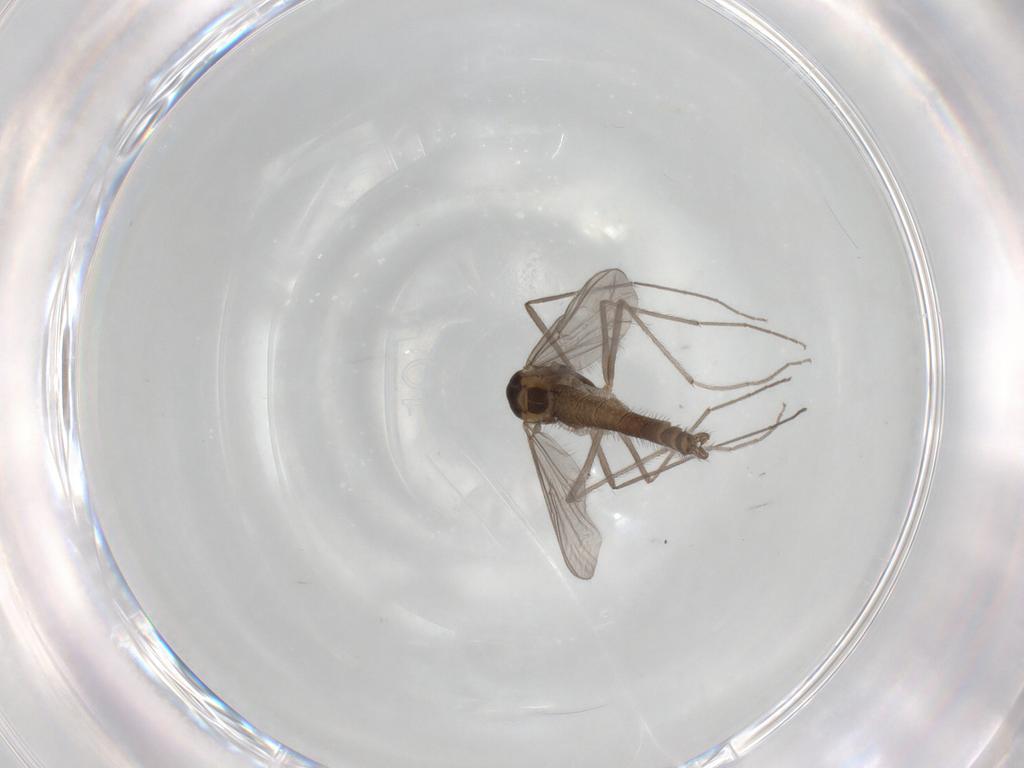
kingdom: Animalia
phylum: Arthropoda
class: Insecta
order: Diptera
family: Chironomidae
